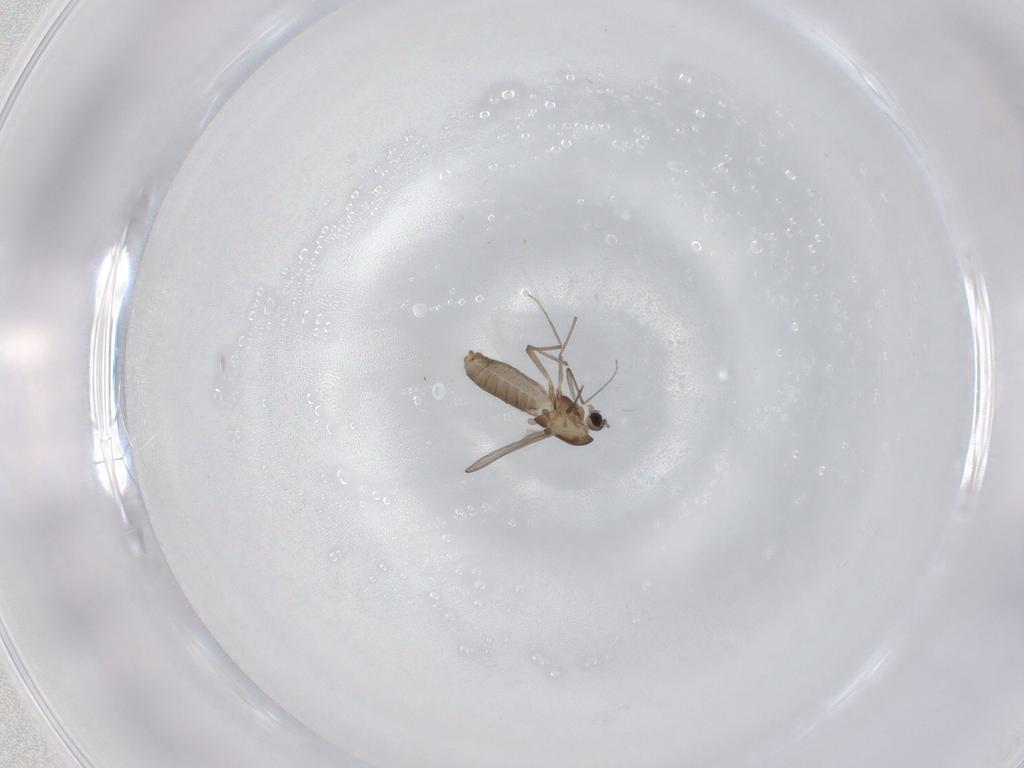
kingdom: Animalia
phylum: Arthropoda
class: Insecta
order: Diptera
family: Chironomidae
